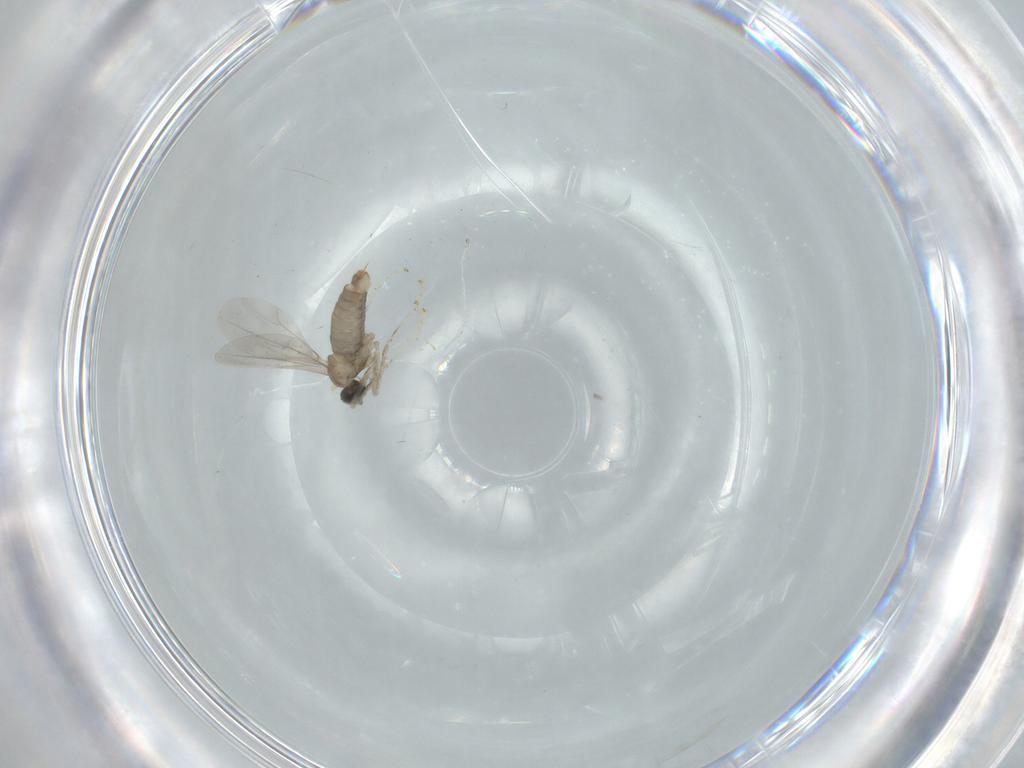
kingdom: Animalia
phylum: Arthropoda
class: Insecta
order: Diptera
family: Cecidomyiidae
